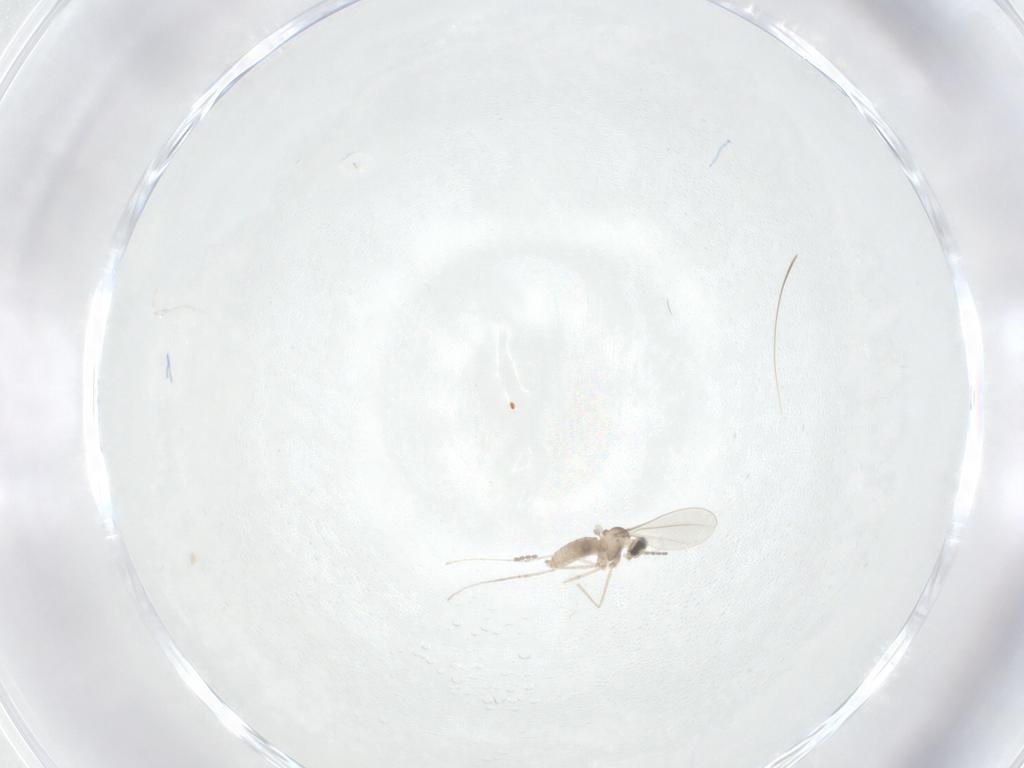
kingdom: Animalia
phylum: Arthropoda
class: Insecta
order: Diptera
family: Cecidomyiidae
